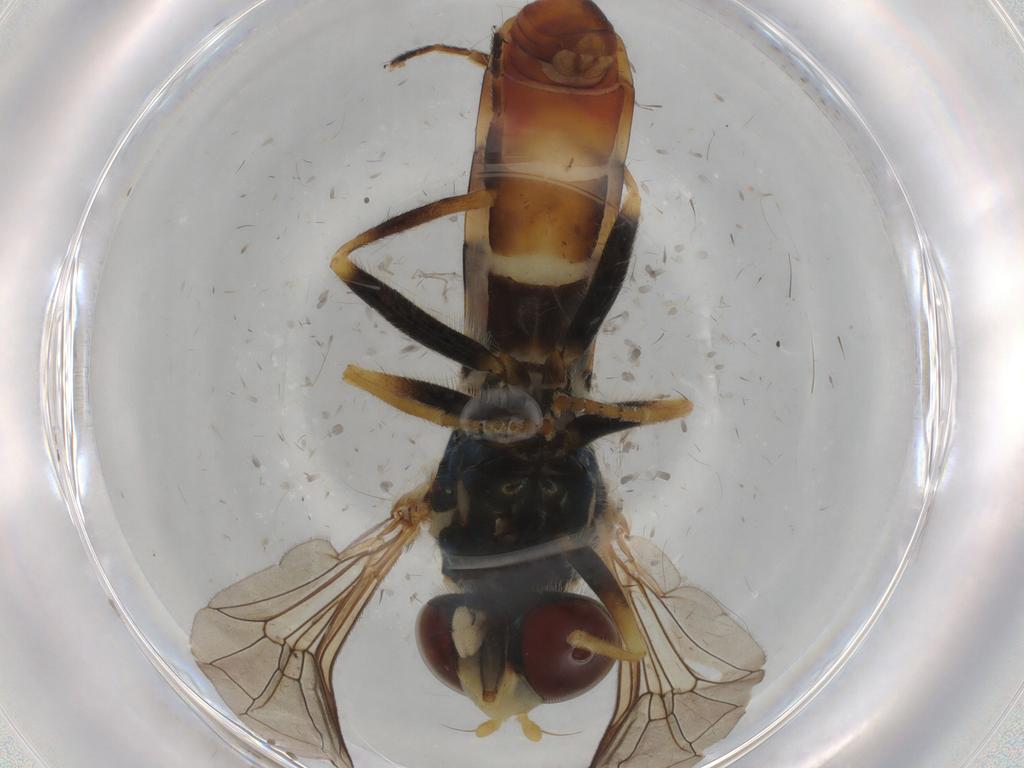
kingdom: Animalia
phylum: Arthropoda
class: Insecta
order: Diptera
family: Syrphidae
